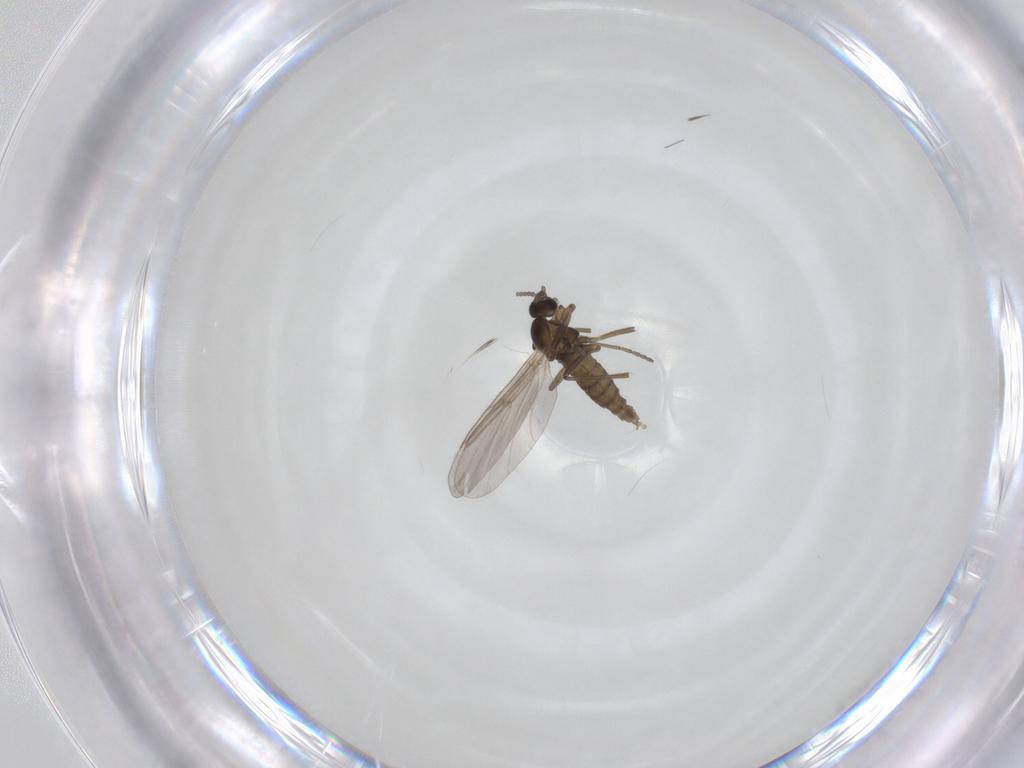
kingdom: Animalia
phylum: Arthropoda
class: Insecta
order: Diptera
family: Cecidomyiidae
